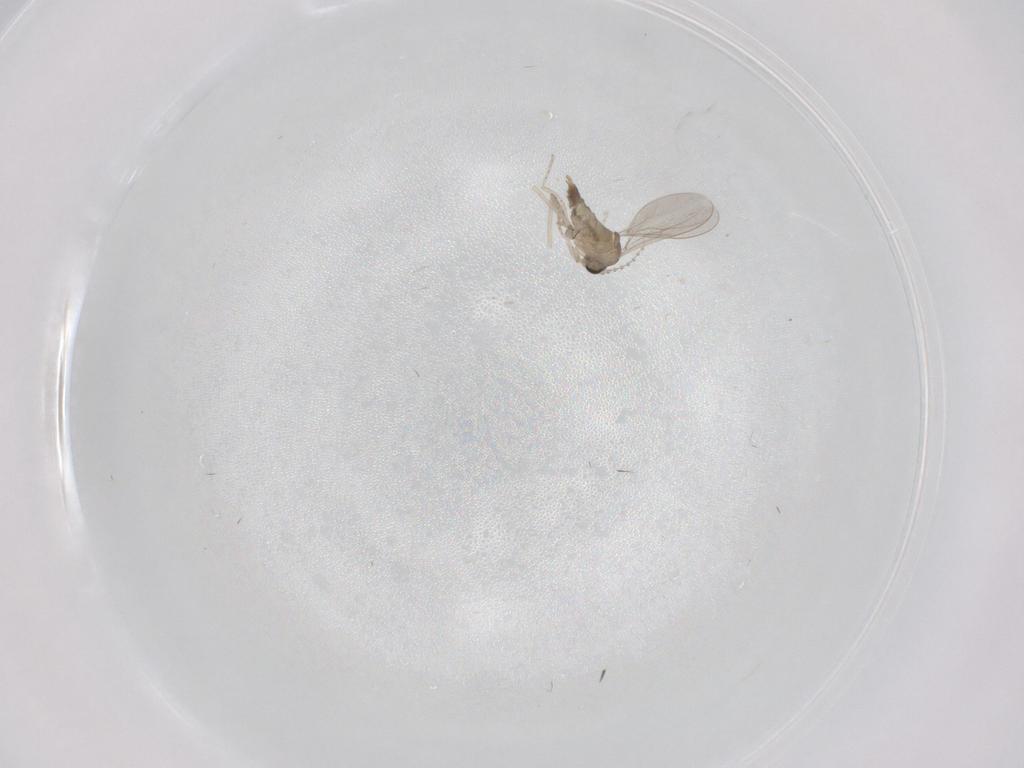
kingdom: Animalia
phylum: Arthropoda
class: Insecta
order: Diptera
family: Cecidomyiidae
